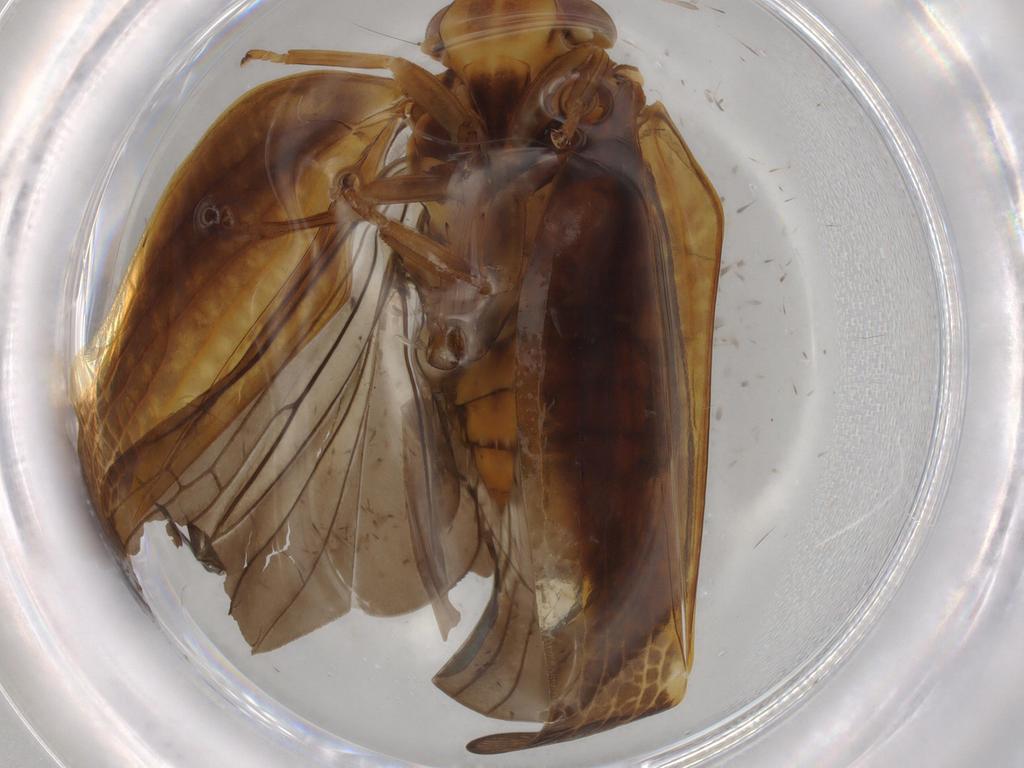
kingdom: Animalia
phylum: Arthropoda
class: Insecta
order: Hemiptera
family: Nogodinidae
